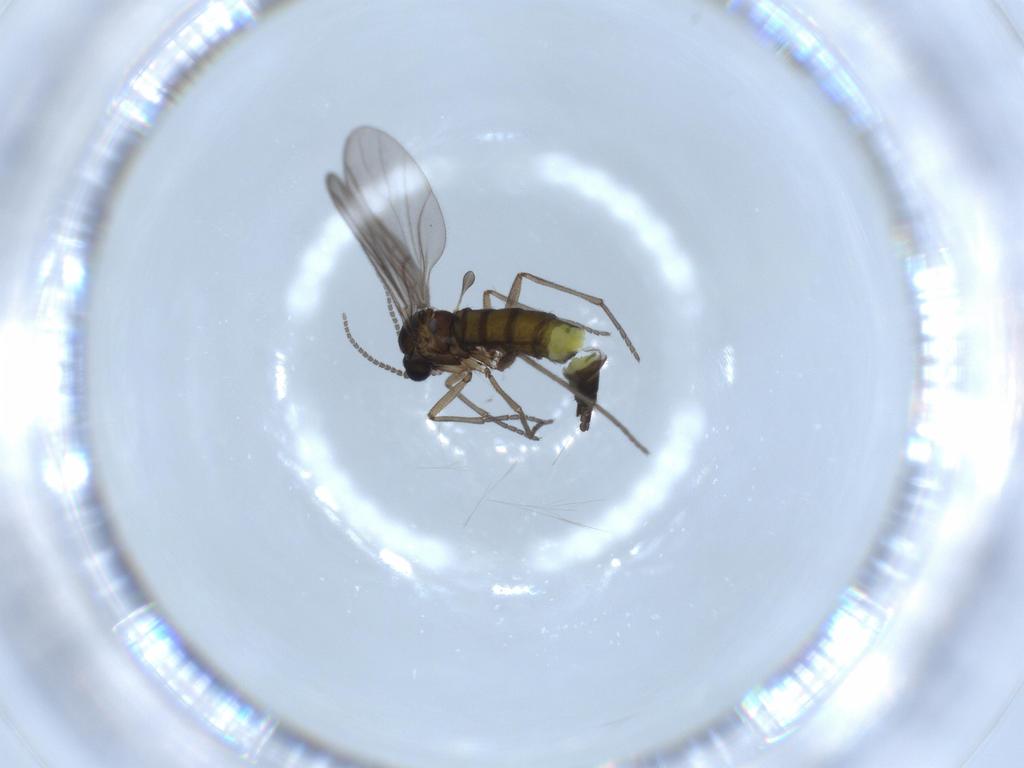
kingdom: Animalia
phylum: Arthropoda
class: Insecta
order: Diptera
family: Sciaridae
